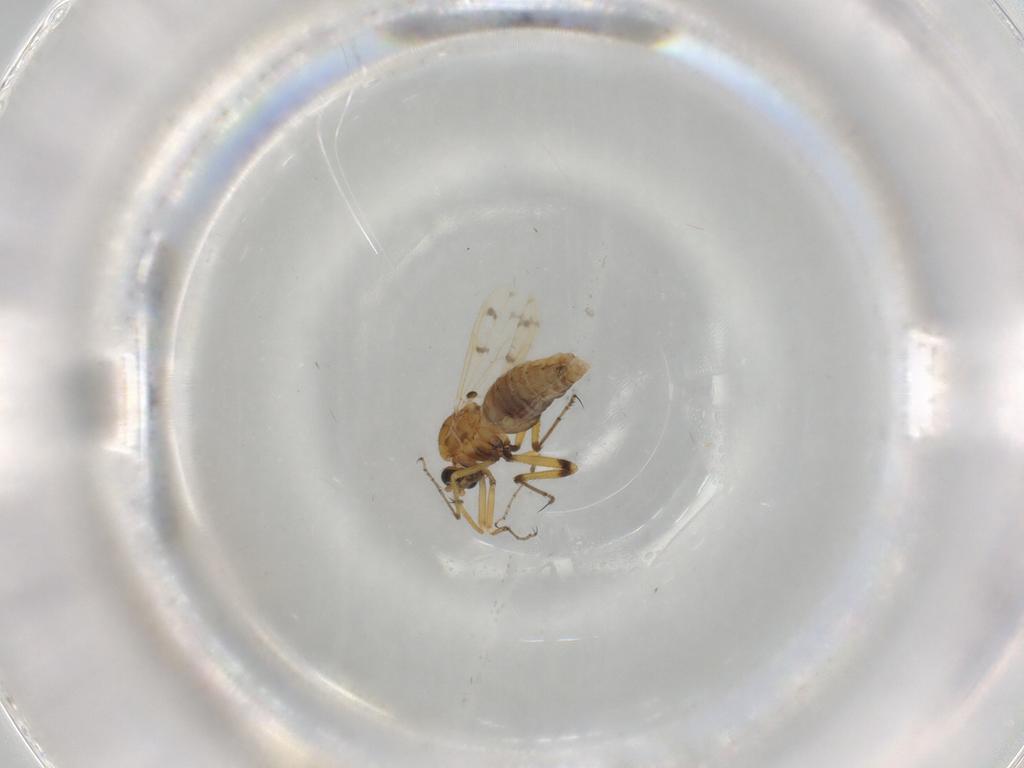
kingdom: Animalia
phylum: Arthropoda
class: Insecta
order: Diptera
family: Ceratopogonidae
